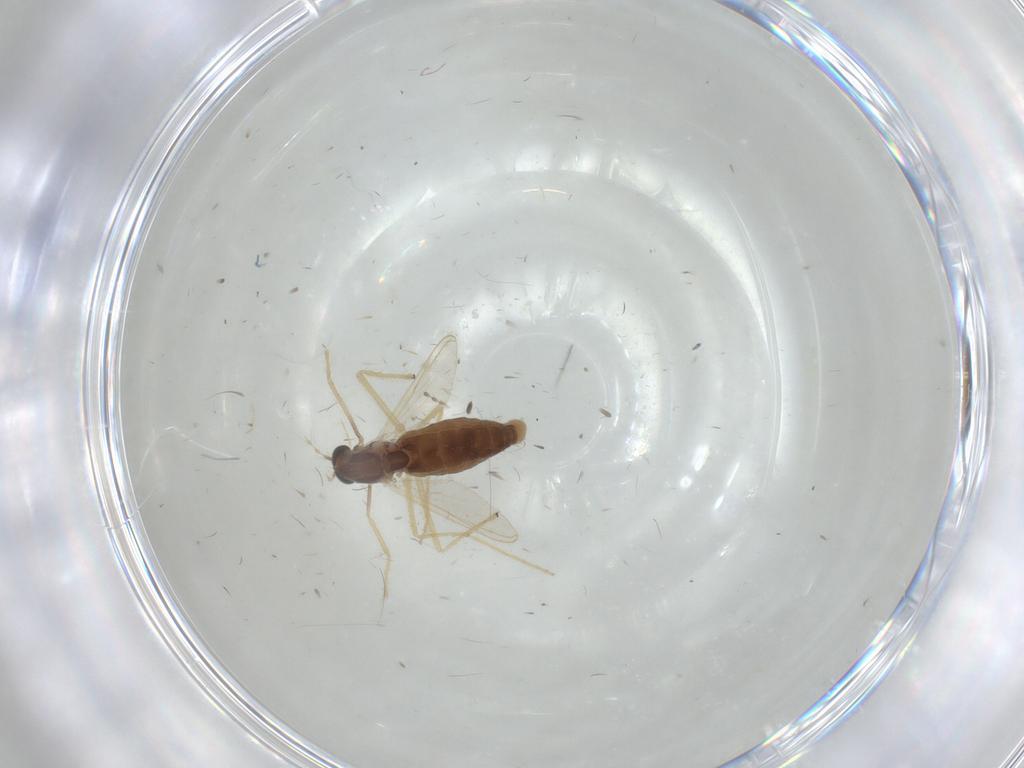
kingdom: Animalia
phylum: Arthropoda
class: Insecta
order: Diptera
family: Chironomidae
